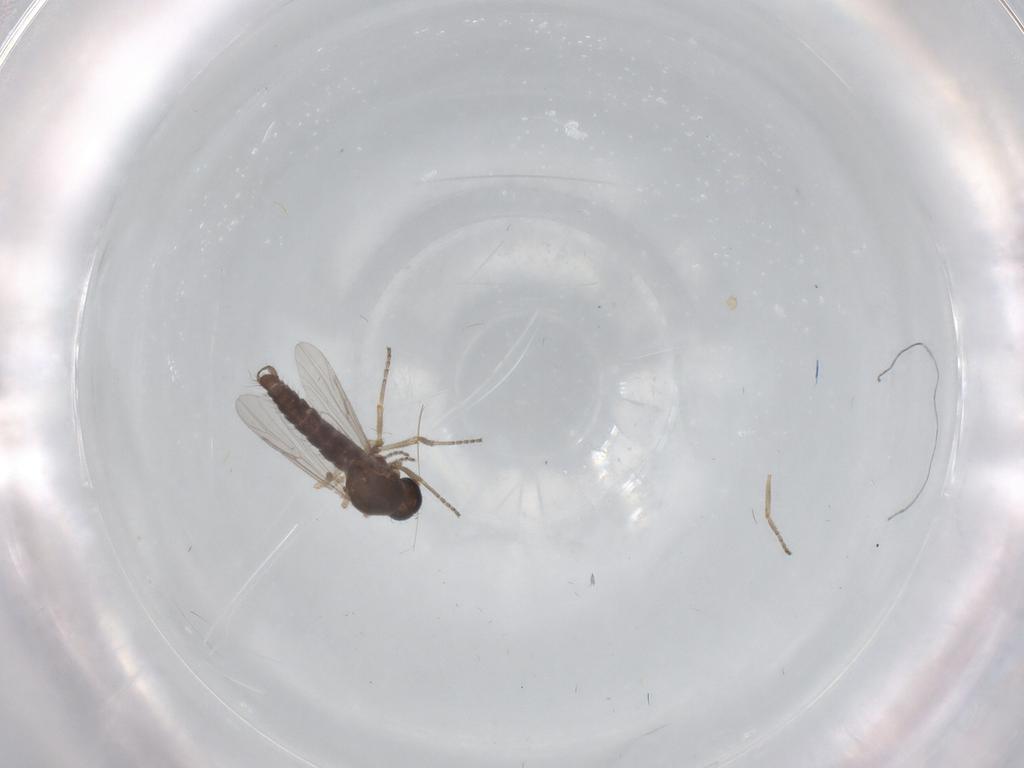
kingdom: Animalia
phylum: Arthropoda
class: Insecta
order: Diptera
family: Ceratopogonidae
